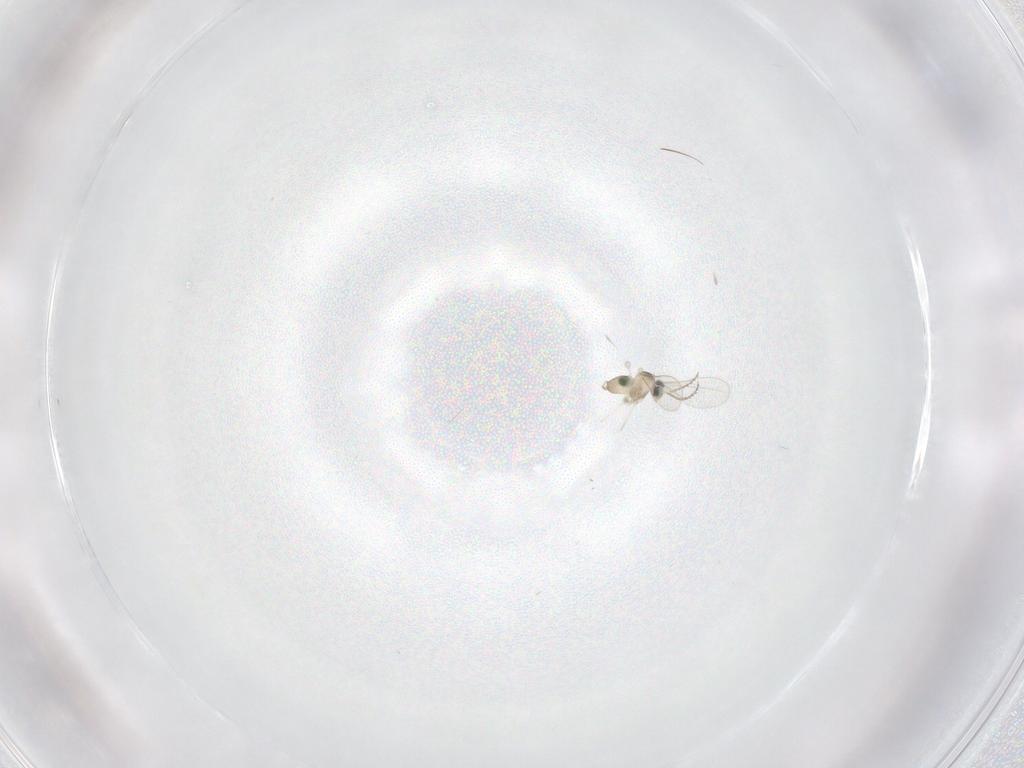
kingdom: Animalia
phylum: Arthropoda
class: Insecta
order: Diptera
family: Cecidomyiidae
